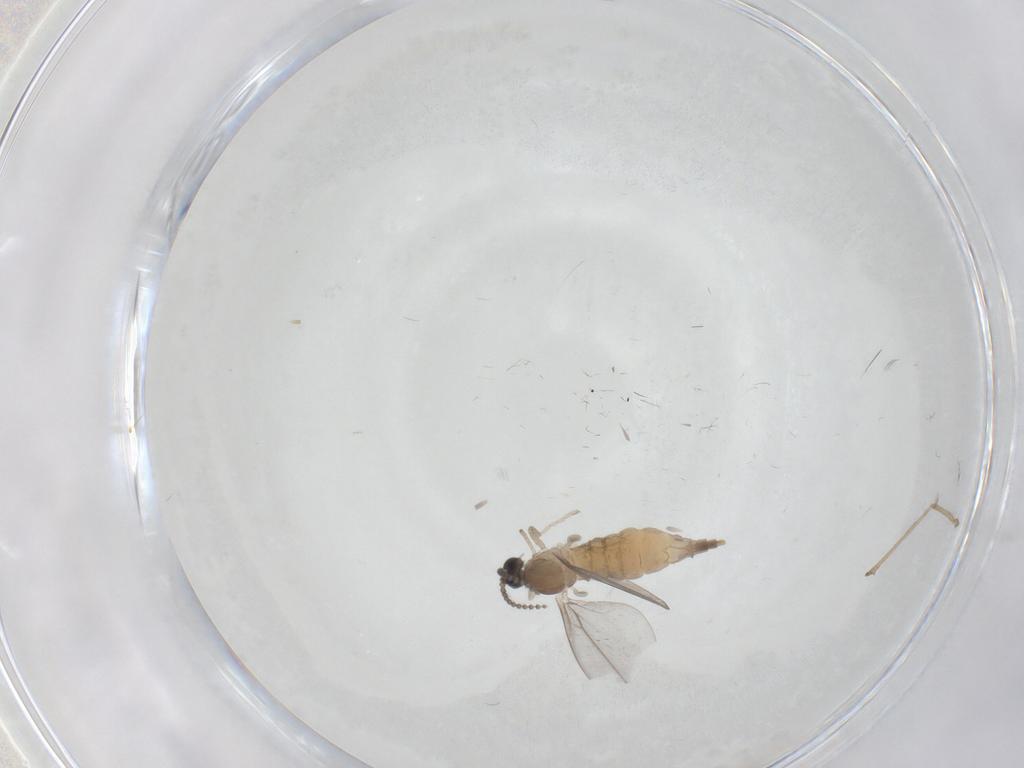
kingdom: Animalia
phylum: Arthropoda
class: Insecta
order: Diptera
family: Cecidomyiidae
